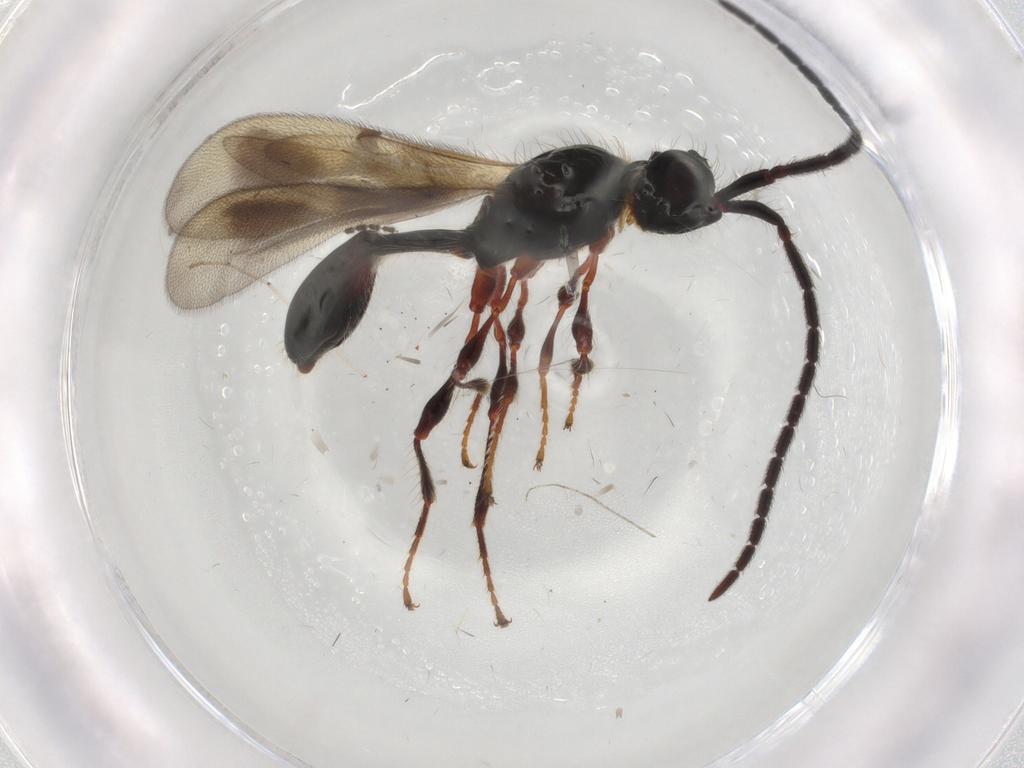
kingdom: Animalia
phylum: Arthropoda
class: Insecta
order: Hymenoptera
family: Diapriidae
